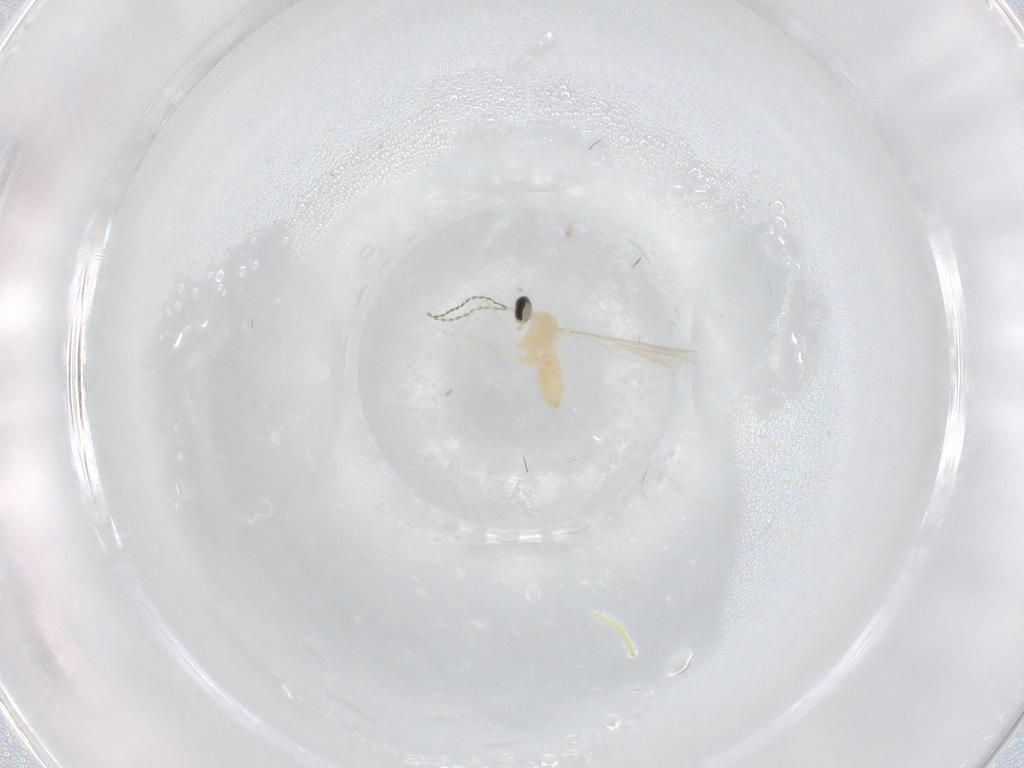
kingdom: Animalia
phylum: Arthropoda
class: Insecta
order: Diptera
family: Cecidomyiidae
